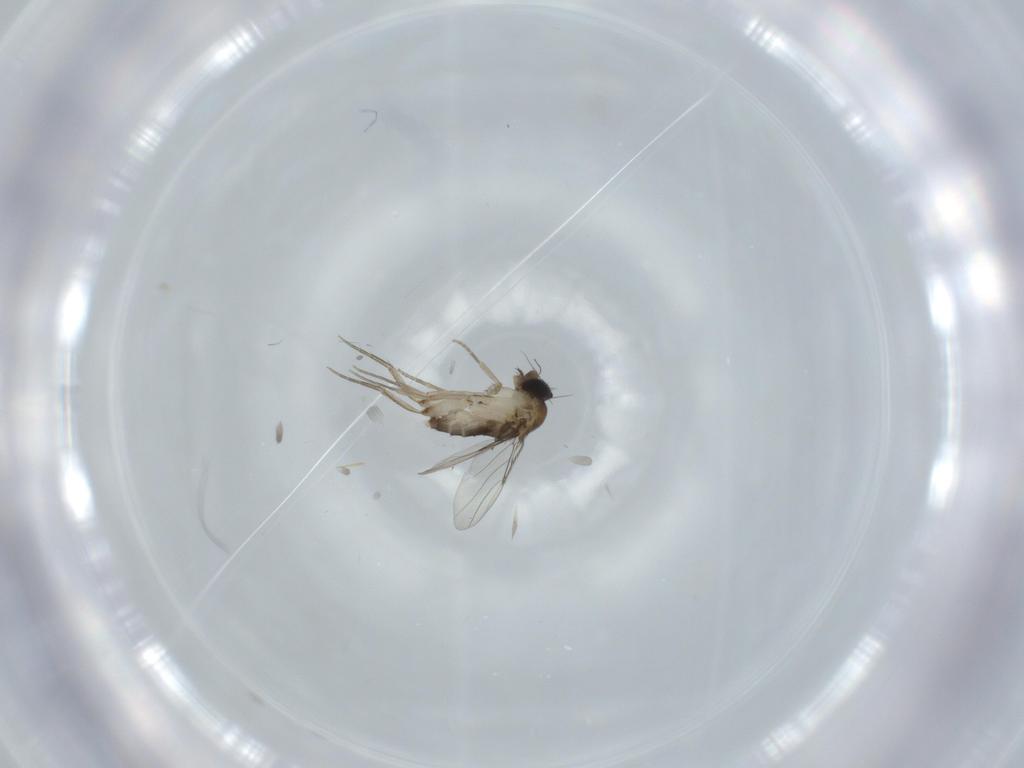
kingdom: Animalia
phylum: Arthropoda
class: Insecta
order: Diptera
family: Phoridae
